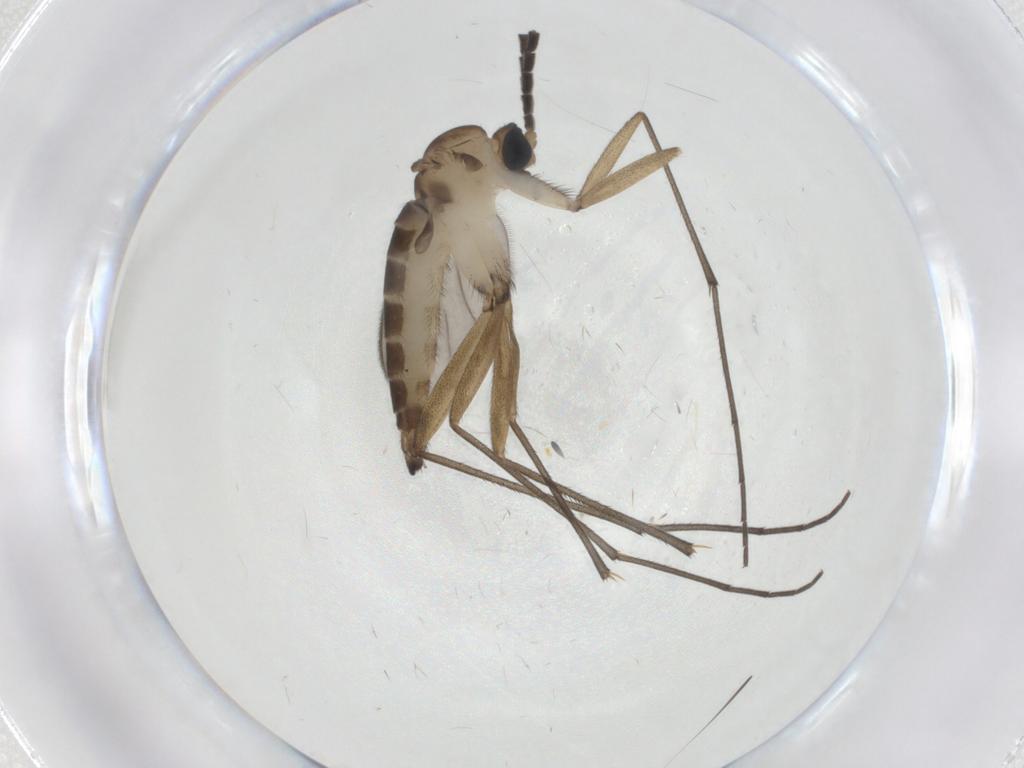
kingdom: Animalia
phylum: Arthropoda
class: Insecta
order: Diptera
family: Sciaridae
